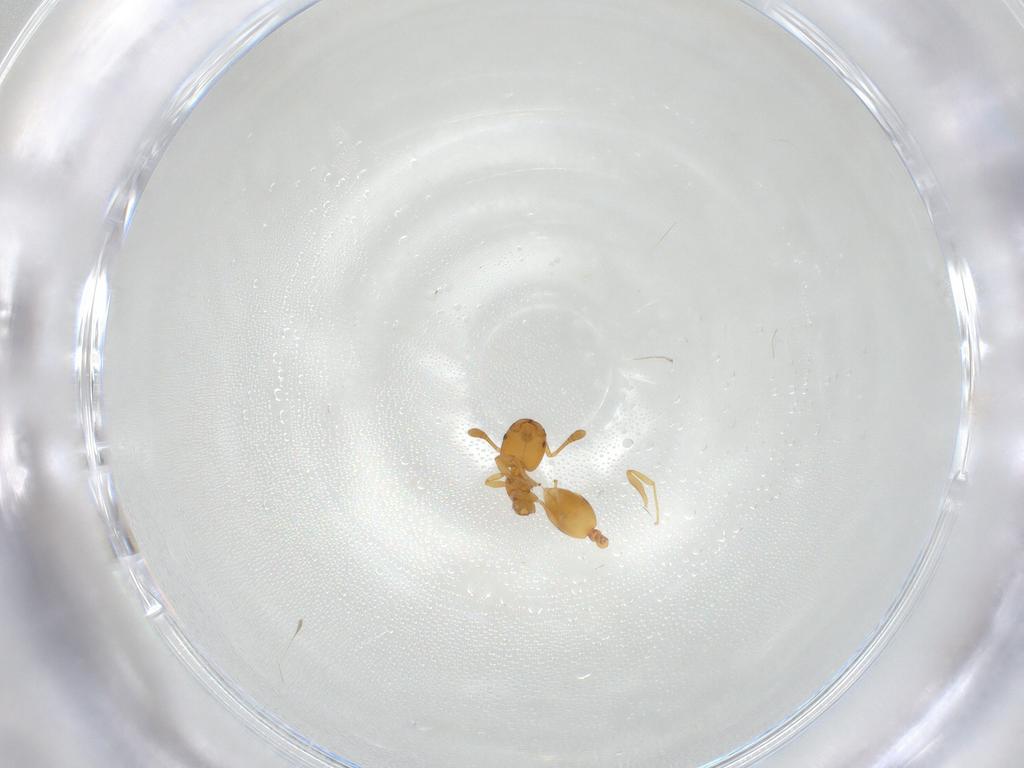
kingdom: Animalia
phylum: Arthropoda
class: Insecta
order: Hymenoptera
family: Formicidae
